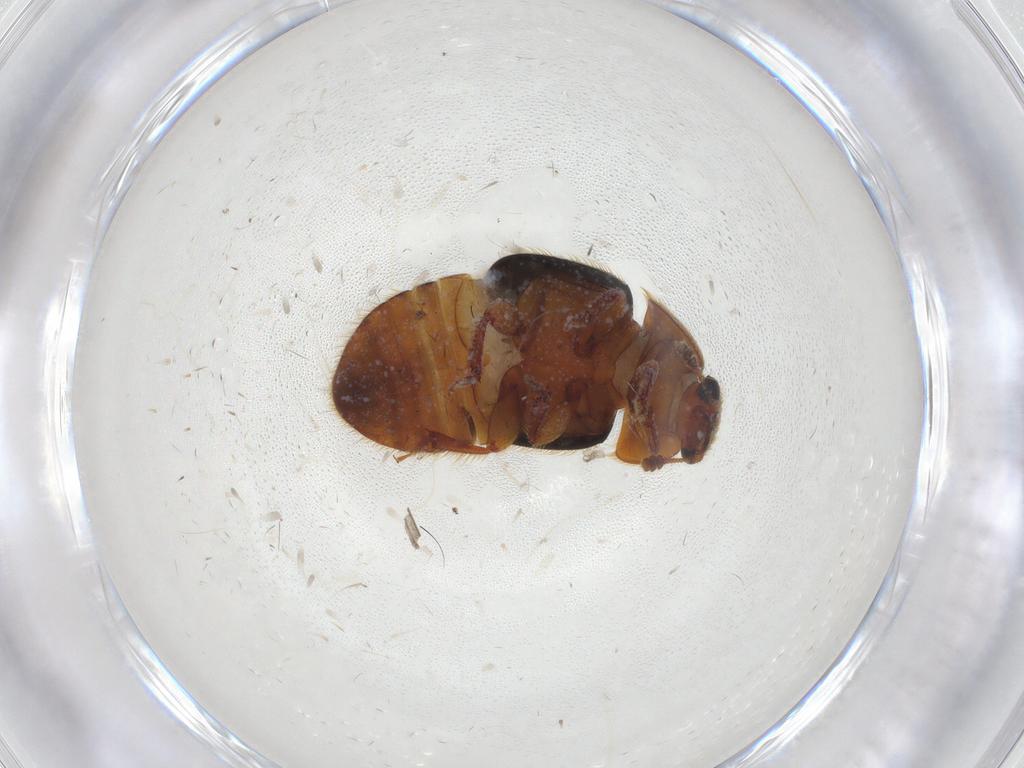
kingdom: Animalia
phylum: Arthropoda
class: Insecta
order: Coleoptera
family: Nitidulidae
